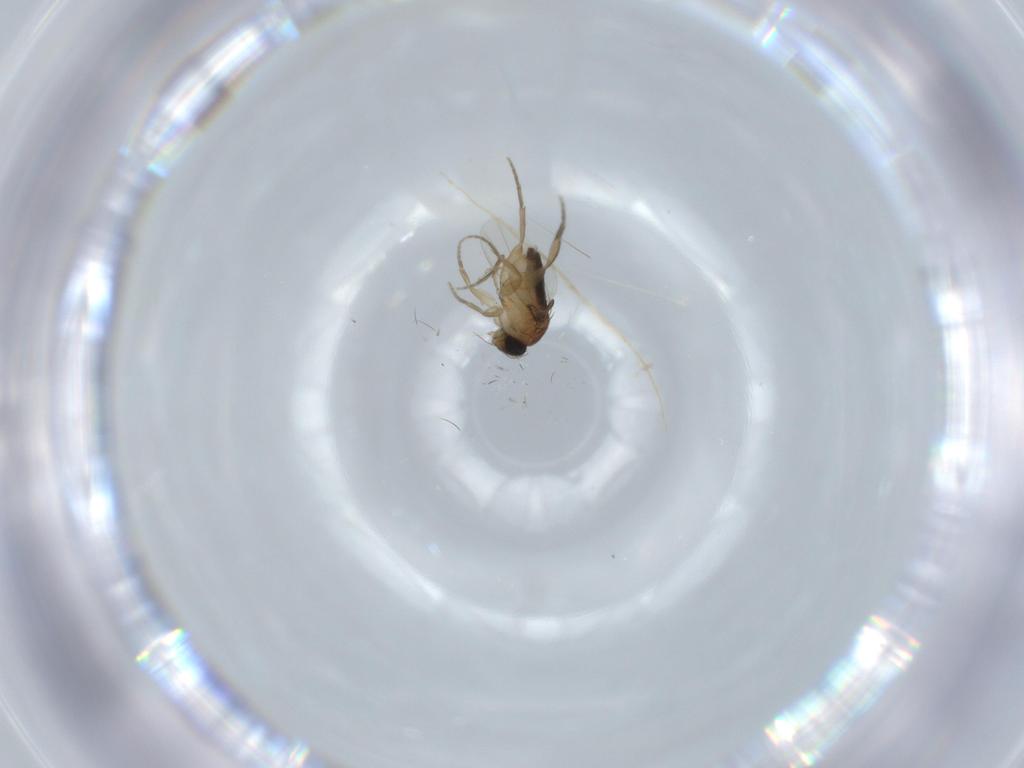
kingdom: Animalia
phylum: Arthropoda
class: Insecta
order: Diptera
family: Phoridae
